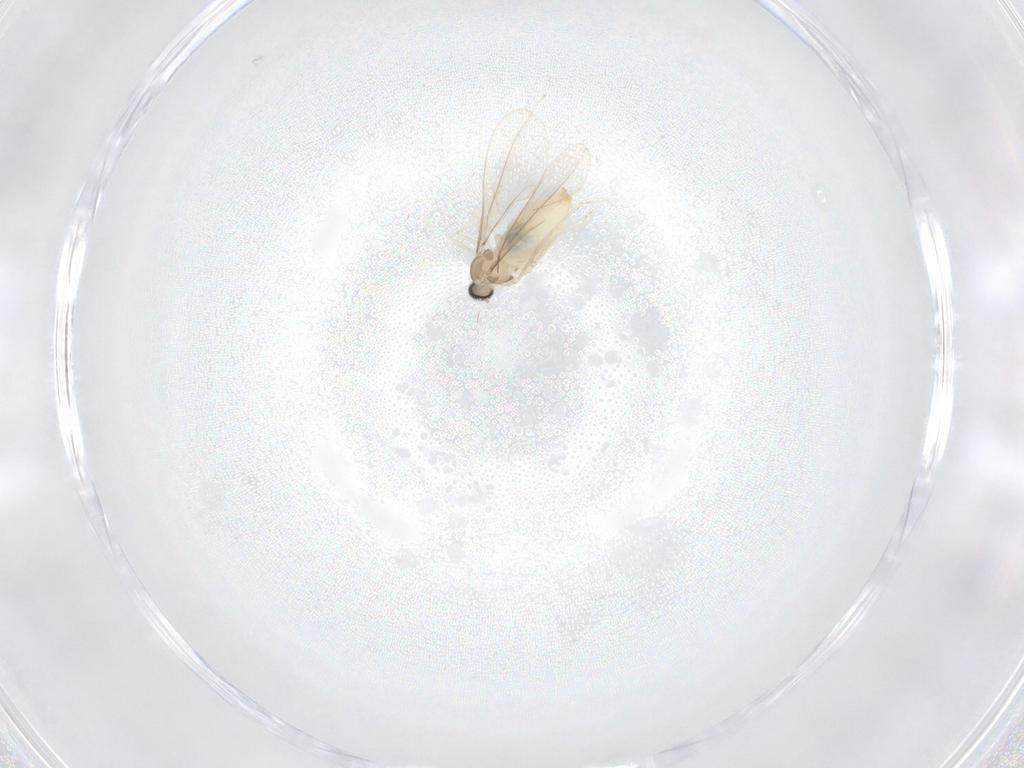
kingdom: Animalia
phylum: Arthropoda
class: Insecta
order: Diptera
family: Cecidomyiidae
